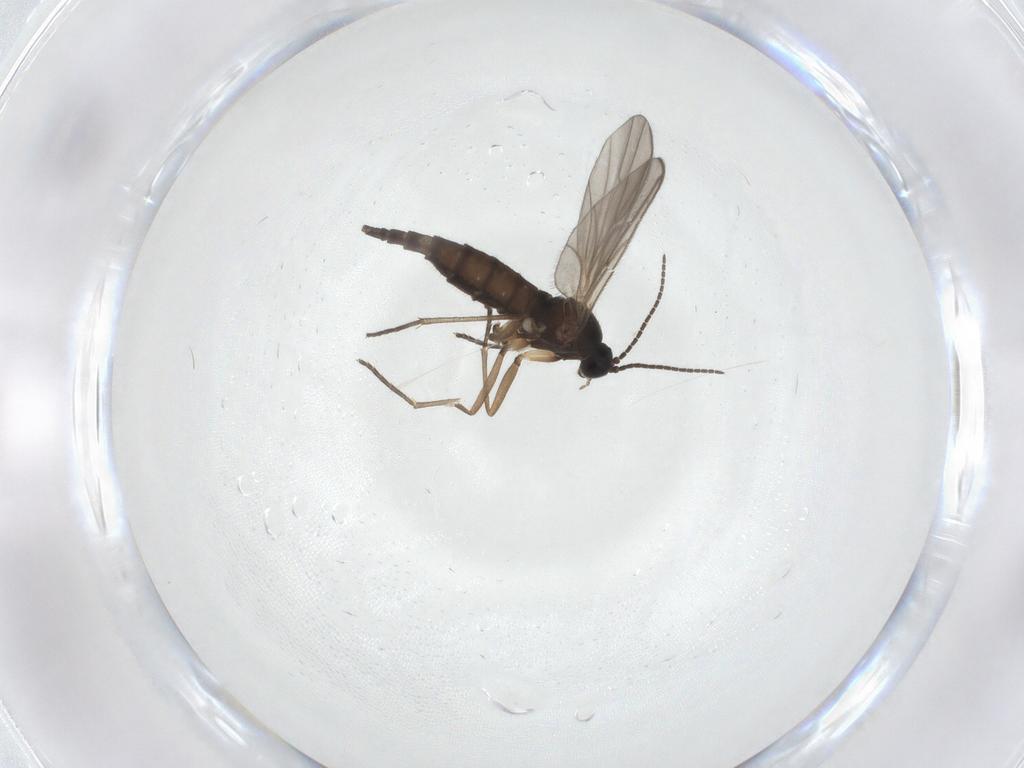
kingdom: Animalia
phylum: Arthropoda
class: Insecta
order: Diptera
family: Sciaridae
